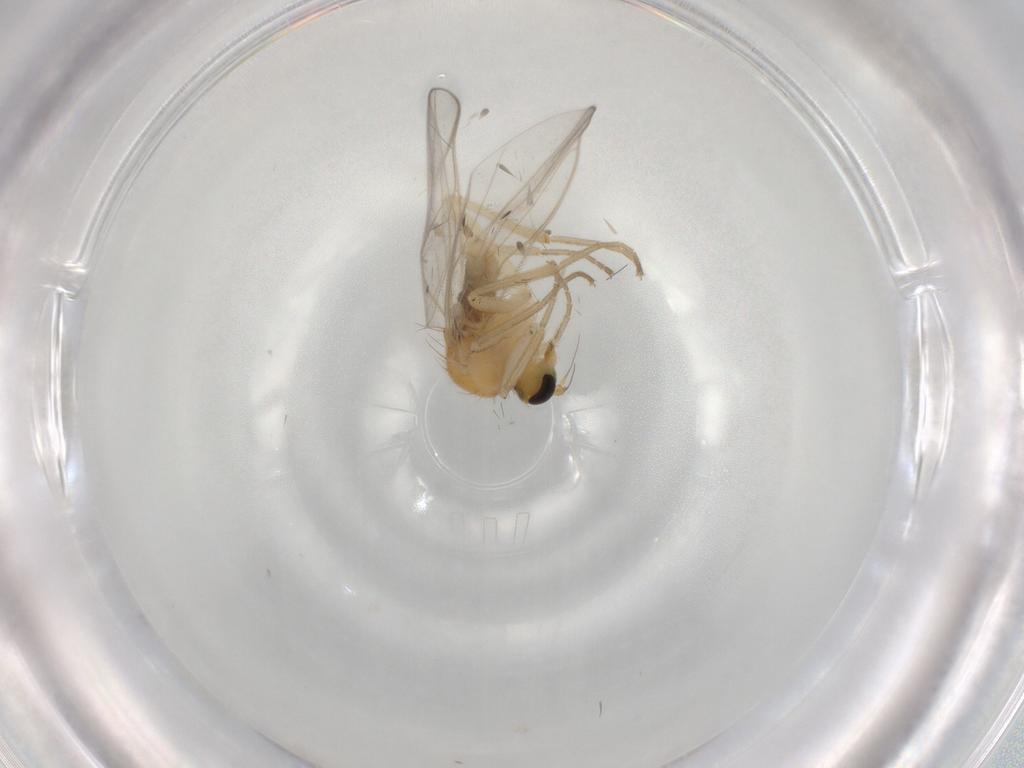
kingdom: Animalia
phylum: Arthropoda
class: Insecta
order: Diptera
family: Hybotidae
